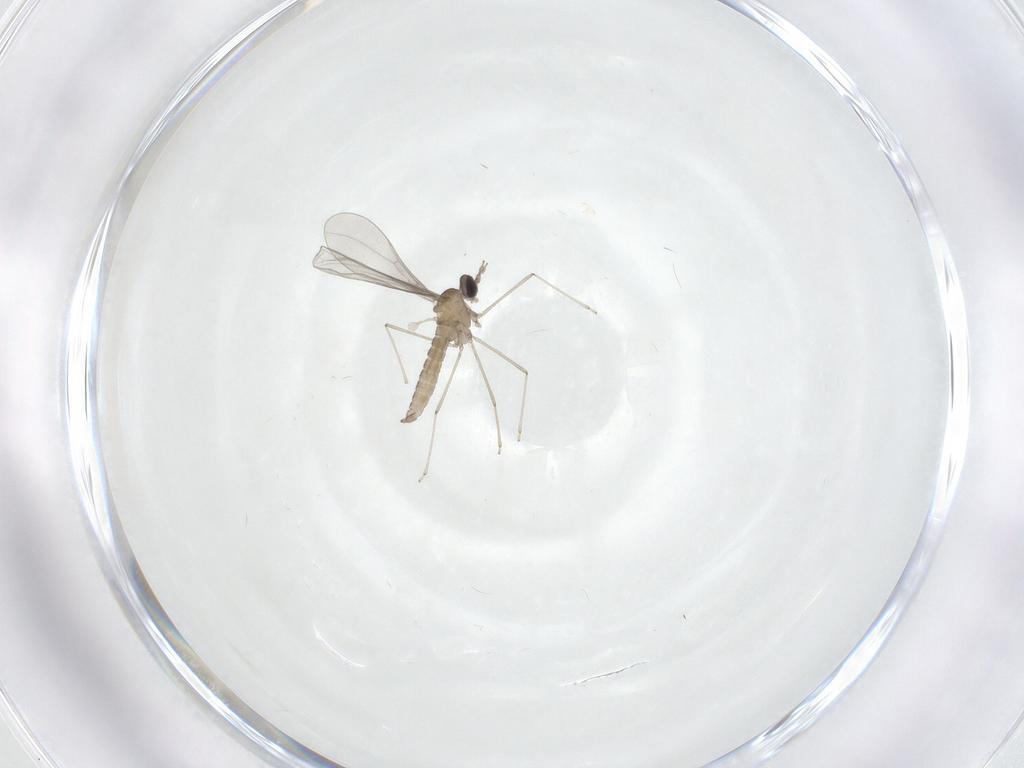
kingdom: Animalia
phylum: Arthropoda
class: Insecta
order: Diptera
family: Cecidomyiidae
